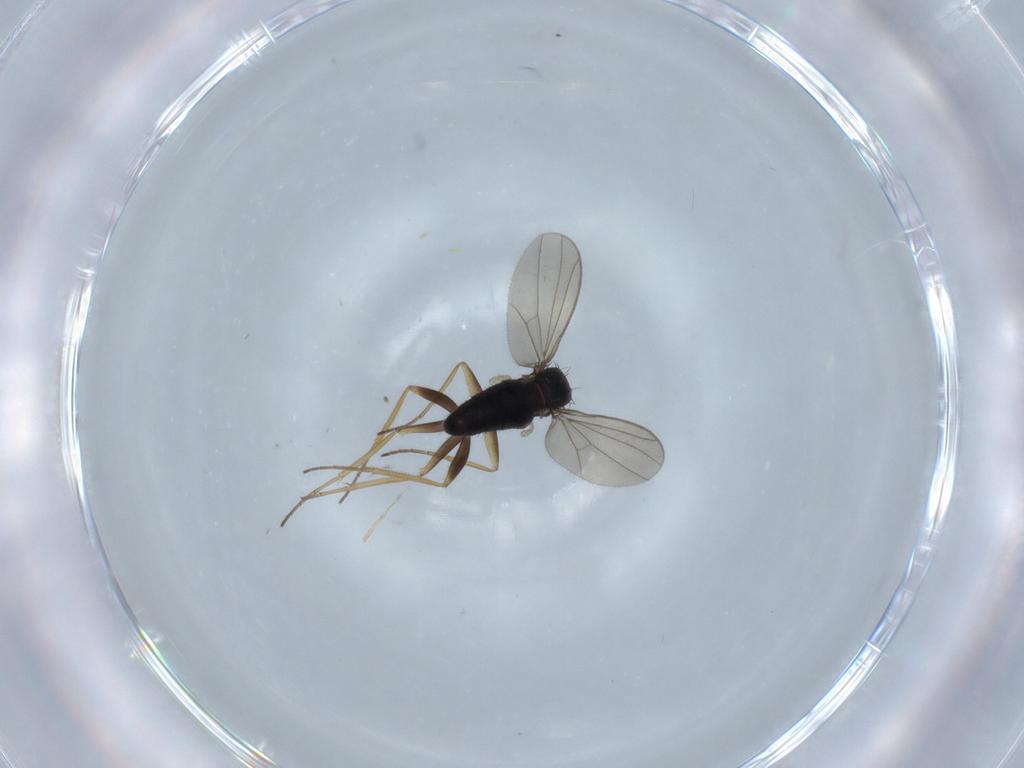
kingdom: Animalia
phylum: Arthropoda
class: Insecta
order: Diptera
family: Dolichopodidae
